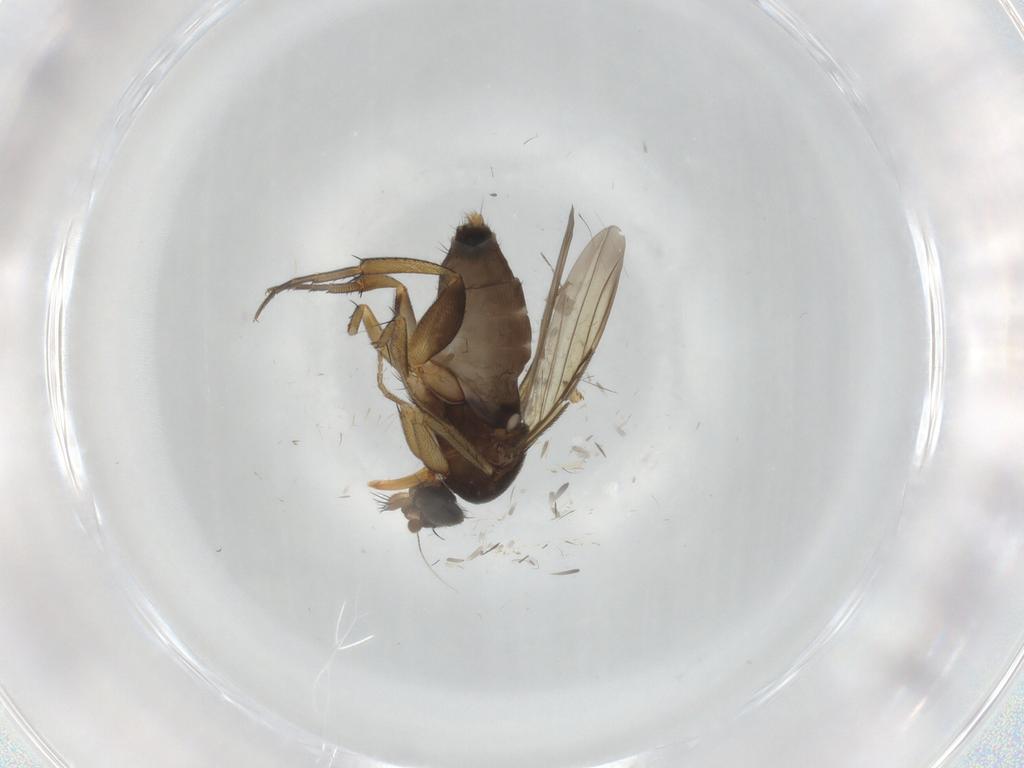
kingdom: Animalia
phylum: Arthropoda
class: Insecta
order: Diptera
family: Phoridae
